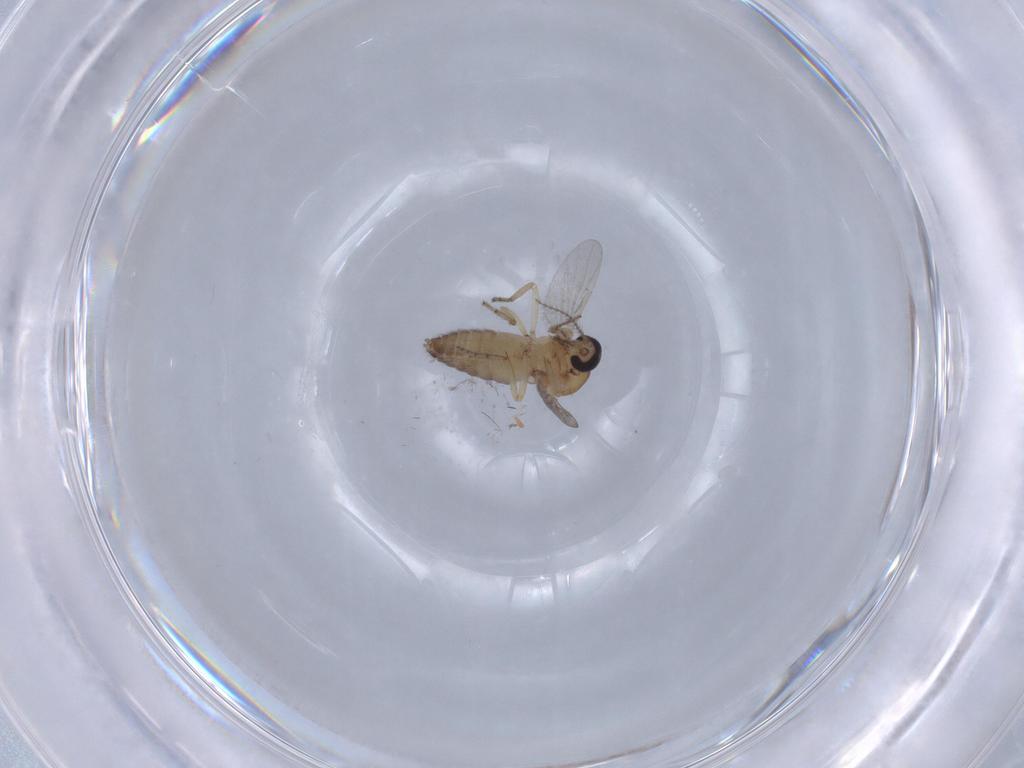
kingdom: Animalia
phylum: Arthropoda
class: Insecta
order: Diptera
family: Ceratopogonidae
